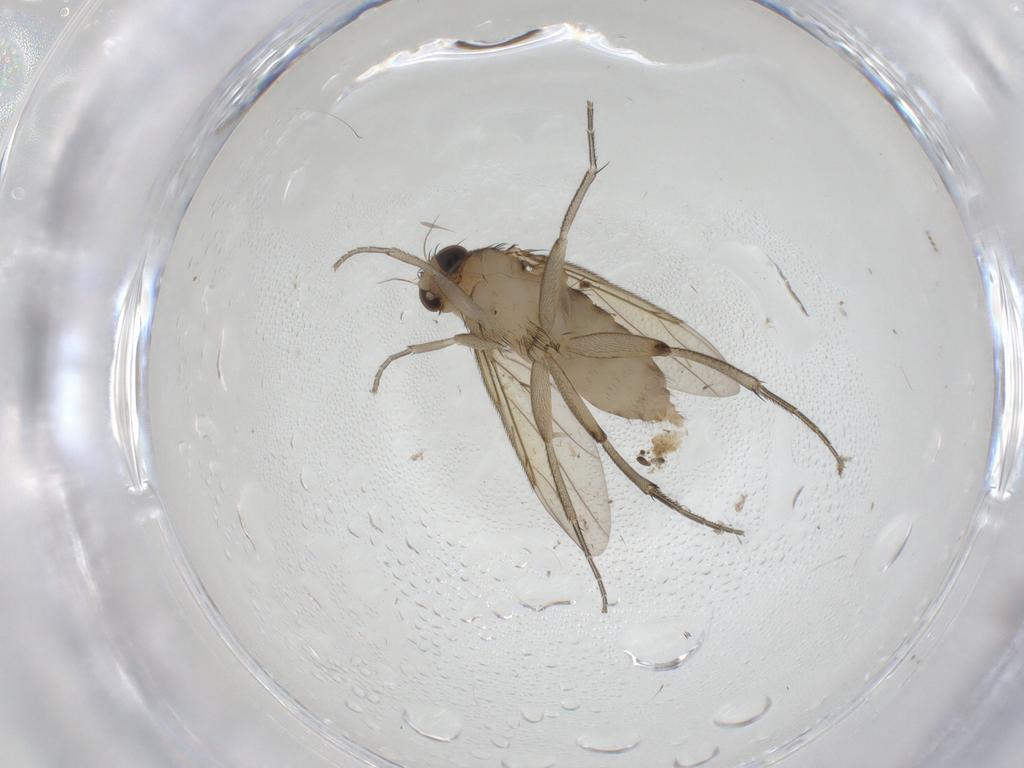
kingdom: Animalia
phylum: Arthropoda
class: Insecta
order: Diptera
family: Phoridae
